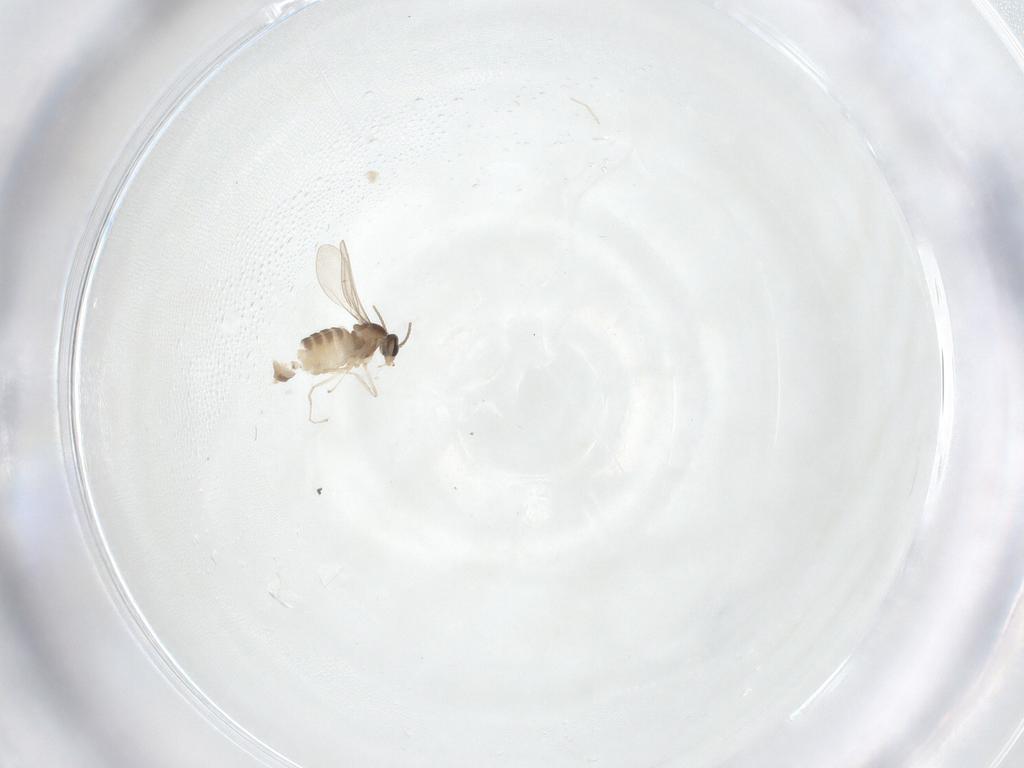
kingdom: Animalia
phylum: Arthropoda
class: Insecta
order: Diptera
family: Cecidomyiidae
